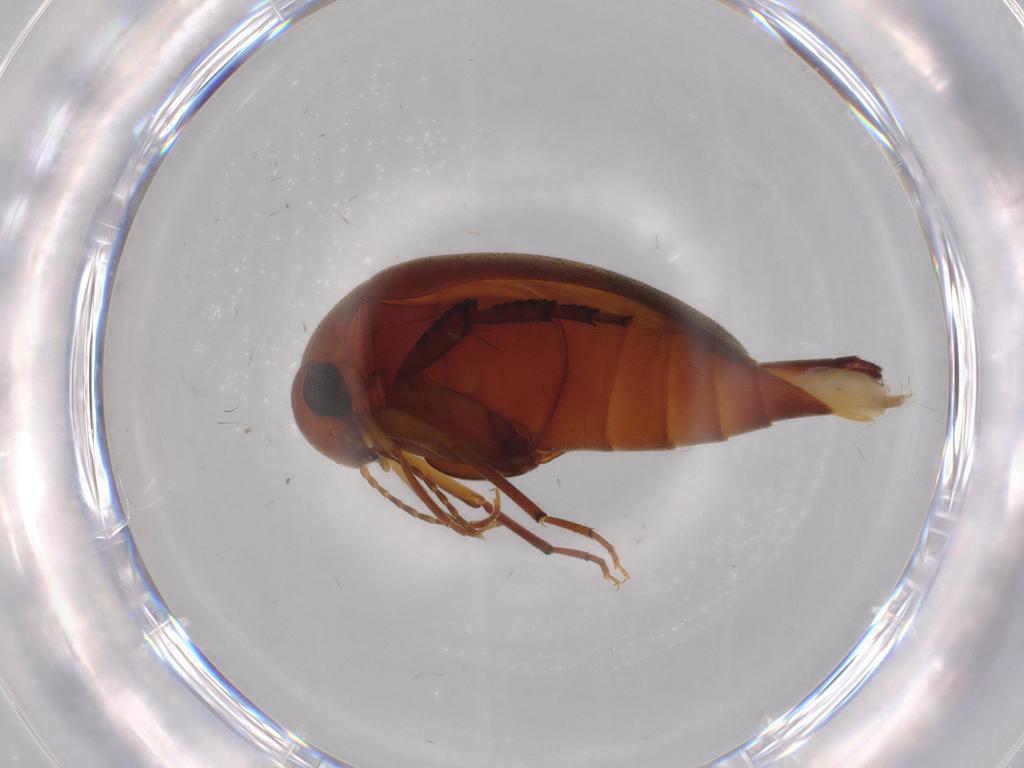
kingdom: Animalia
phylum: Arthropoda
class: Insecta
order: Coleoptera
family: Mordellidae
